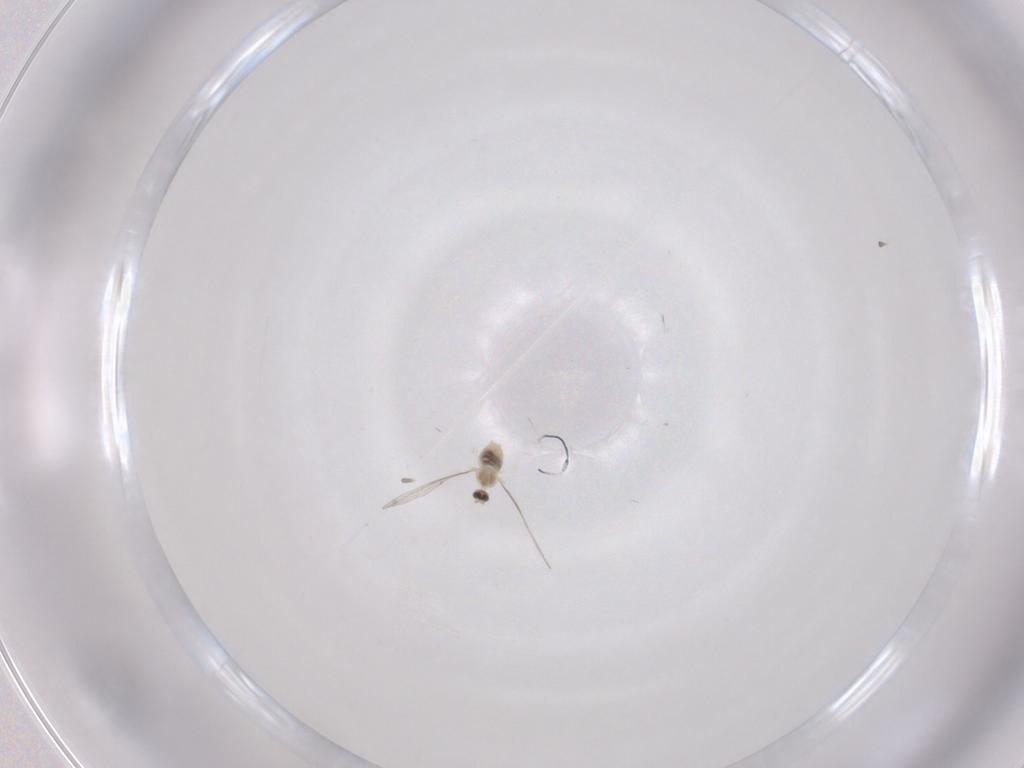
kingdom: Animalia
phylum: Arthropoda
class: Insecta
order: Diptera
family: Cecidomyiidae
